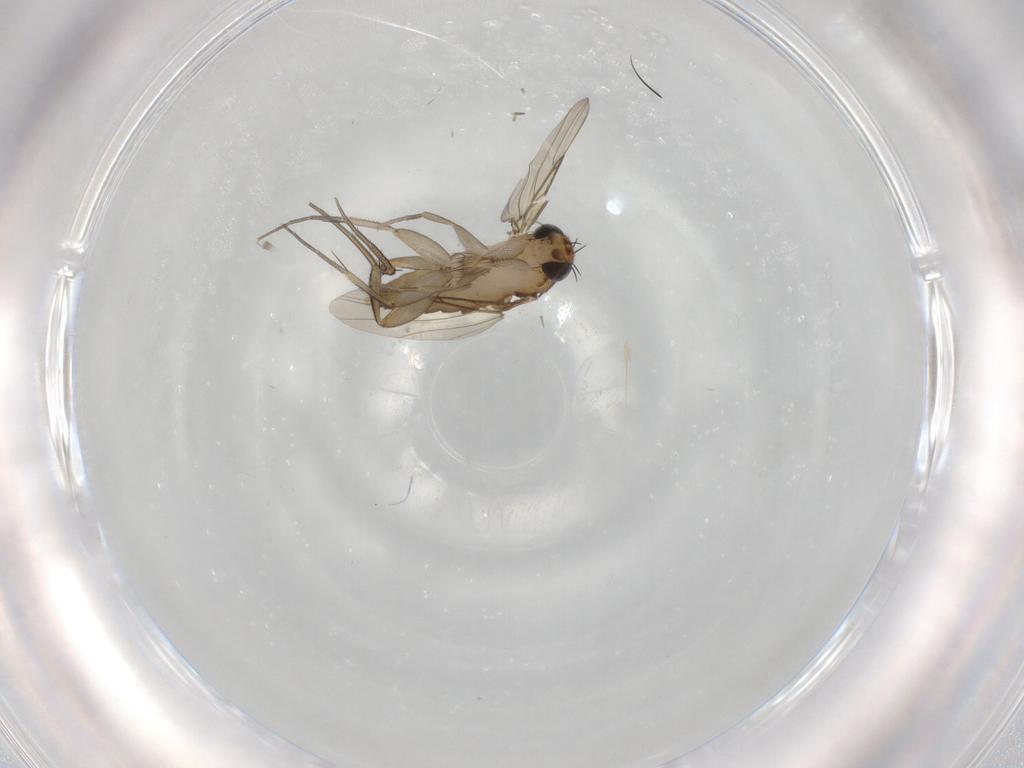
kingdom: Animalia
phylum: Arthropoda
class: Insecta
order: Diptera
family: Phoridae
